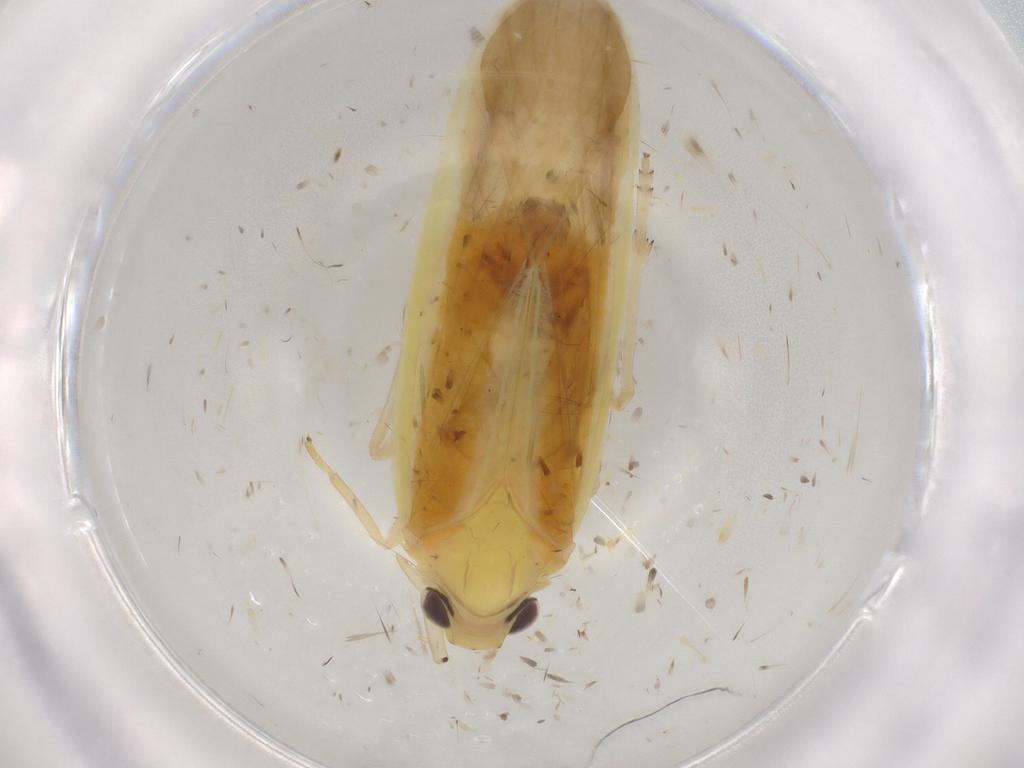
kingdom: Animalia
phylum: Arthropoda
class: Insecta
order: Hemiptera
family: Achilidae
